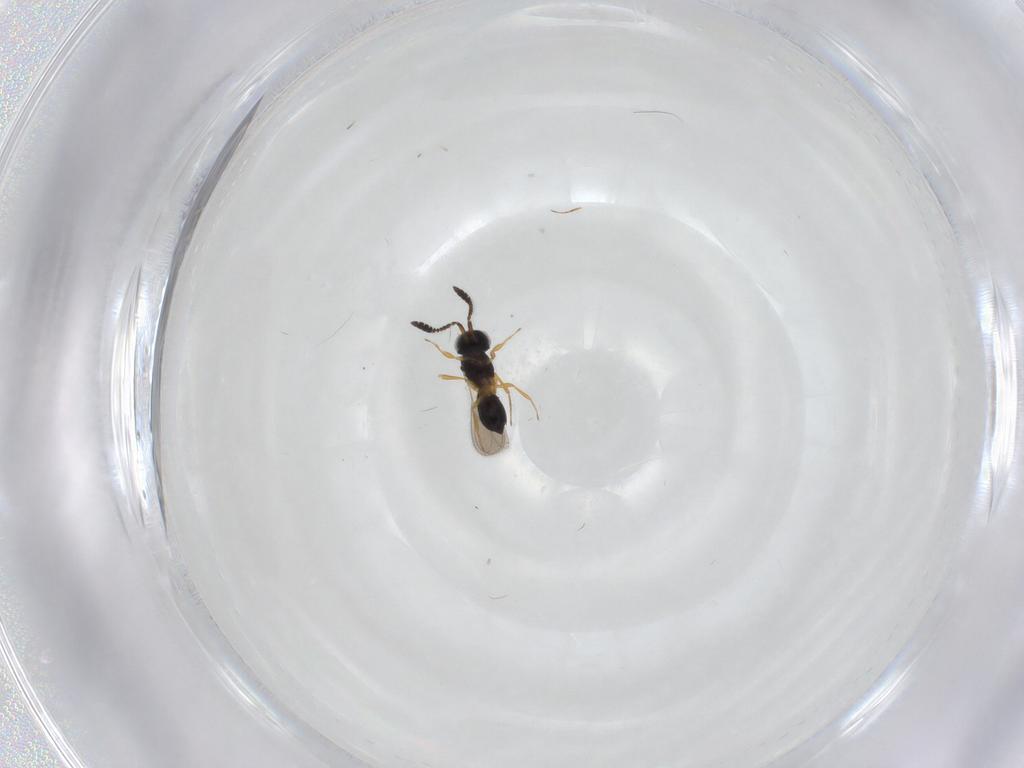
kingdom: Animalia
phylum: Arthropoda
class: Insecta
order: Hymenoptera
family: Scelionidae
